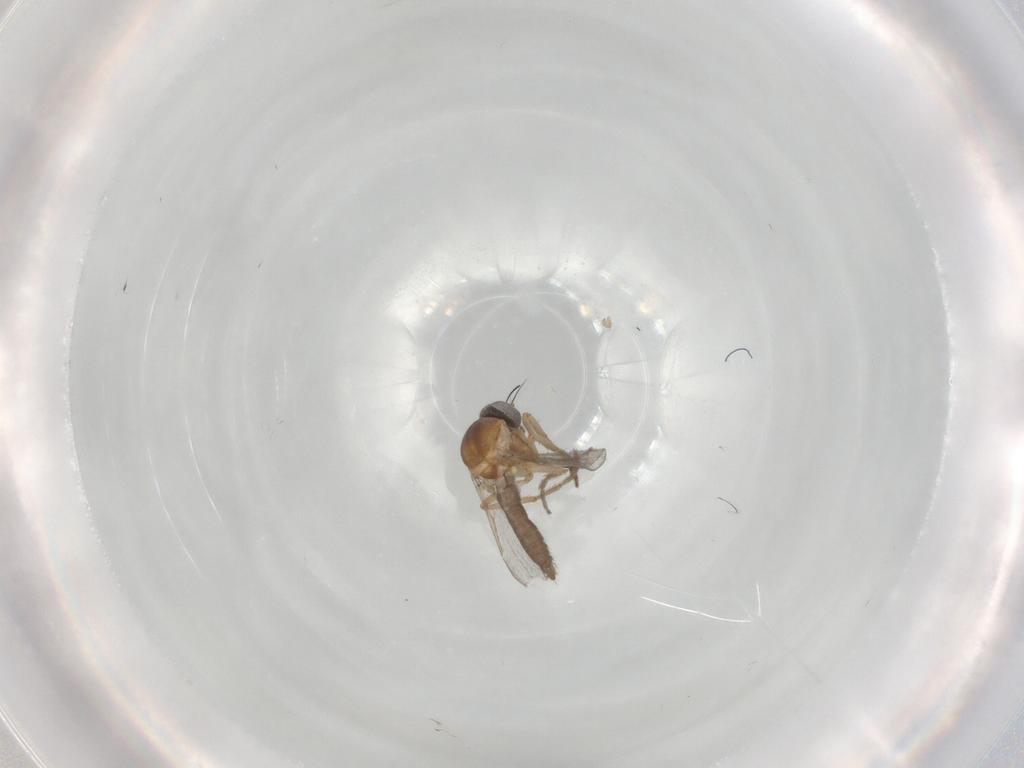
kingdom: Animalia
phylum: Arthropoda
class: Insecta
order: Diptera
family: Ceratopogonidae
